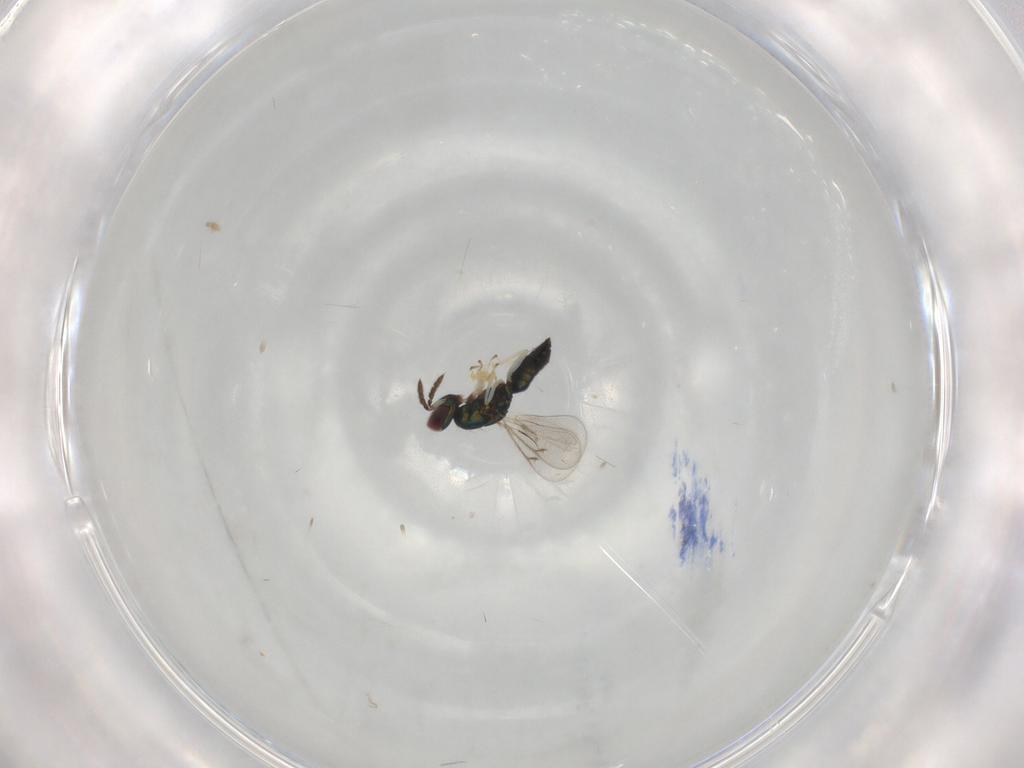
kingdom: Animalia
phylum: Arthropoda
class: Insecta
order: Hymenoptera
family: Eulophidae
